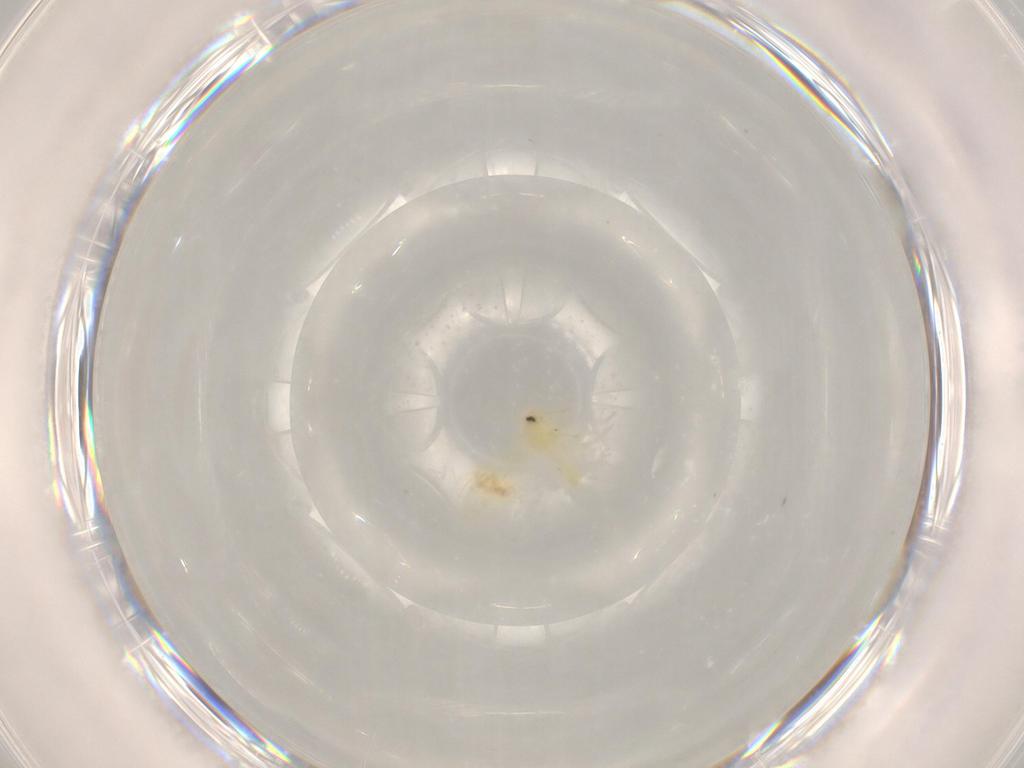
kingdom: Animalia
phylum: Arthropoda
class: Insecta
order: Hemiptera
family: Aleyrodidae
